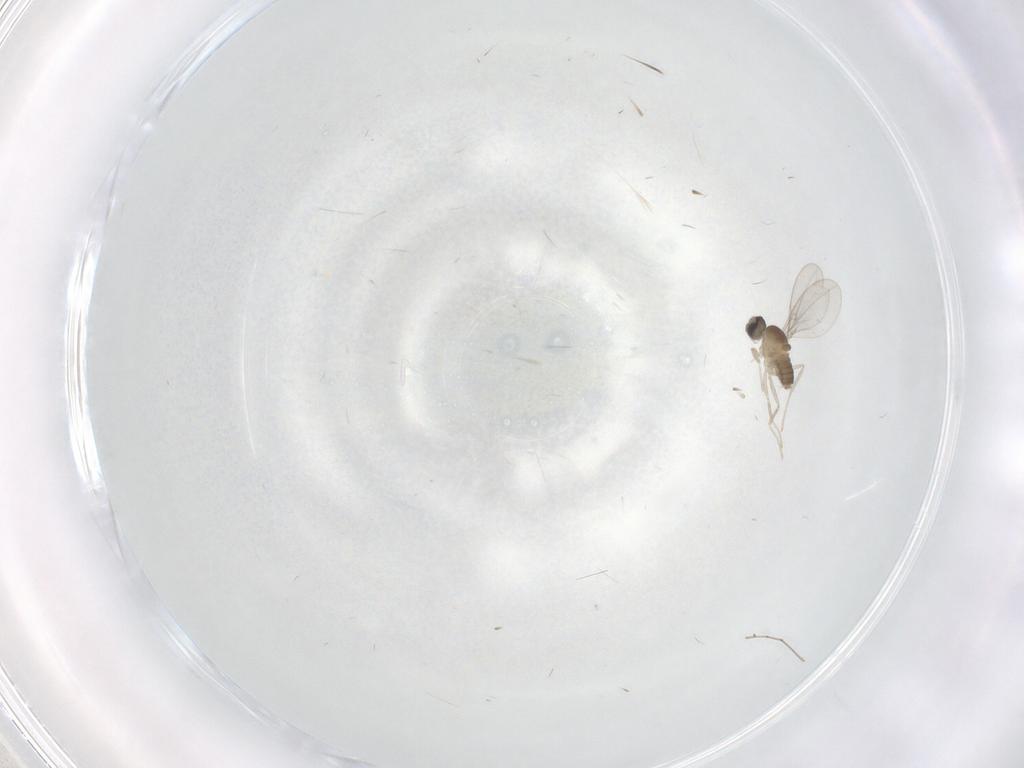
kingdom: Animalia
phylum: Arthropoda
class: Insecta
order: Diptera
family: Cecidomyiidae
